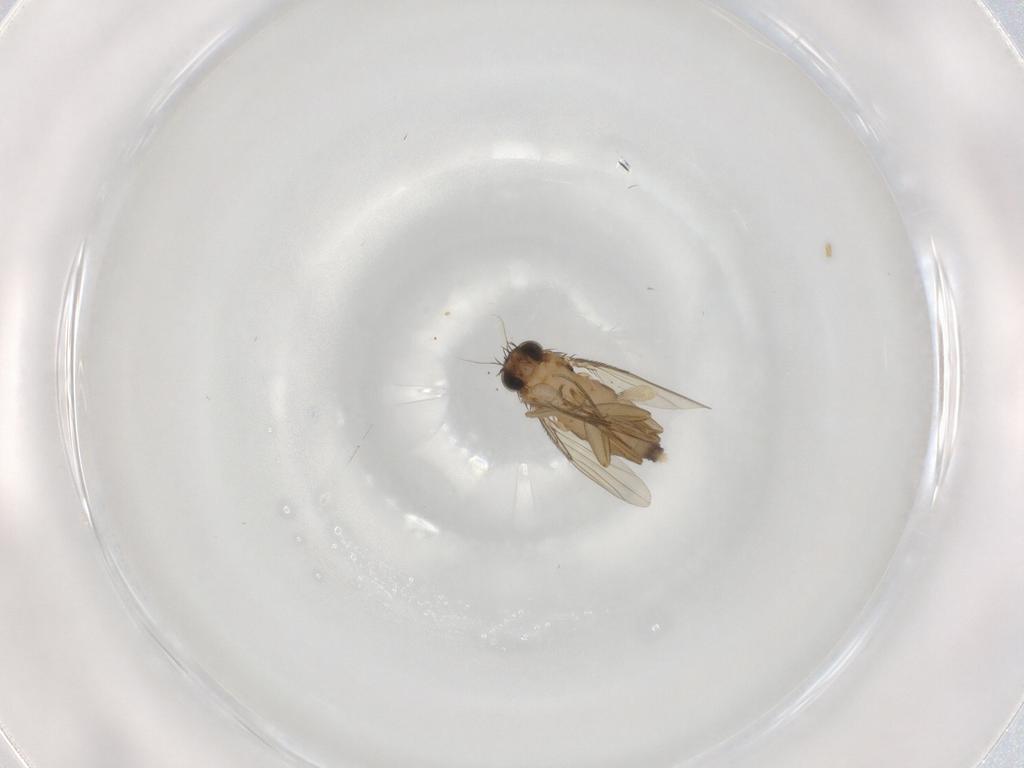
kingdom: Animalia
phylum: Arthropoda
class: Insecta
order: Diptera
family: Phoridae
